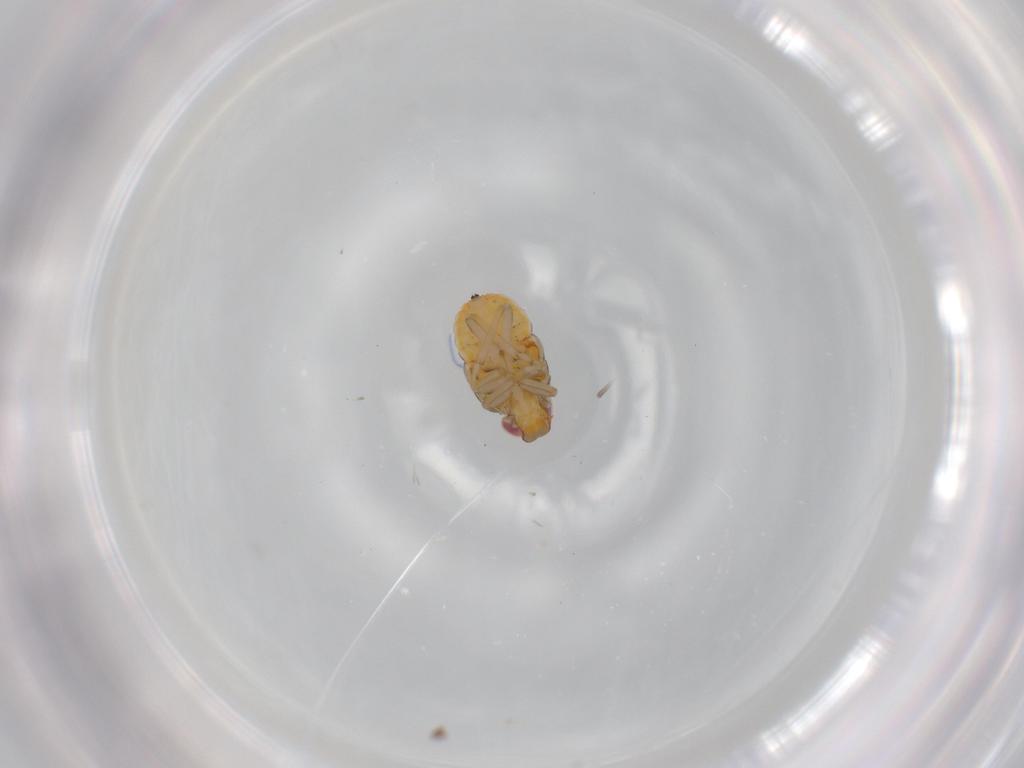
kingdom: Animalia
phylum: Arthropoda
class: Insecta
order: Hemiptera
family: Issidae
